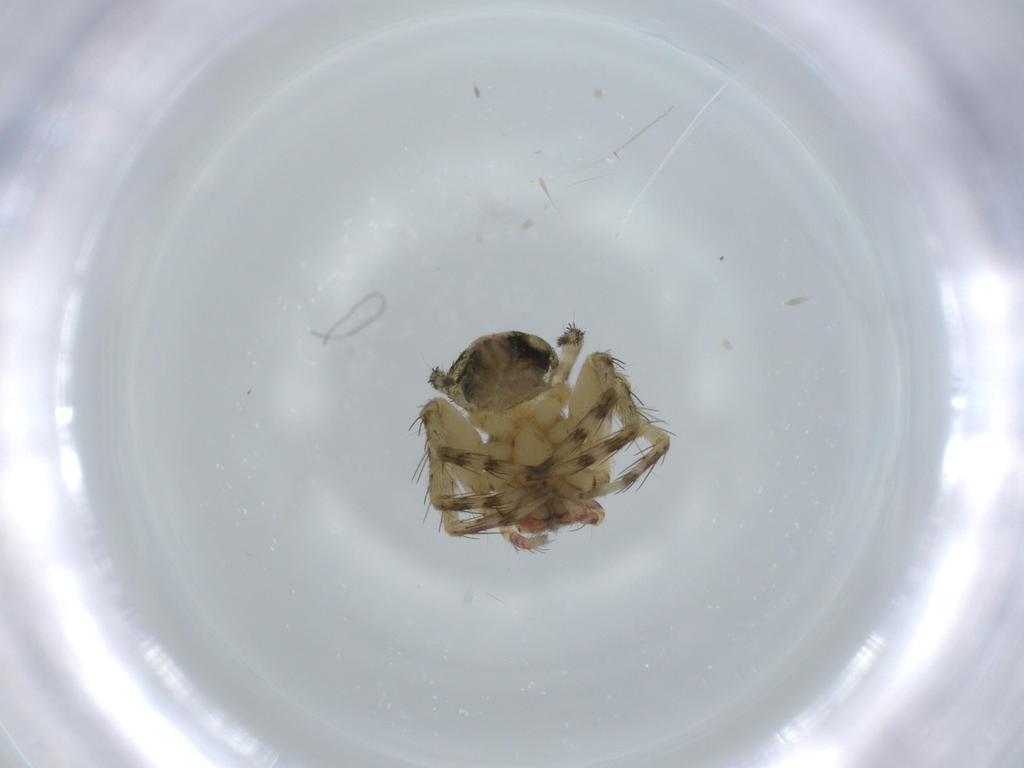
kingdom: Animalia
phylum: Arthropoda
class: Arachnida
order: Araneae
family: Oxyopidae
